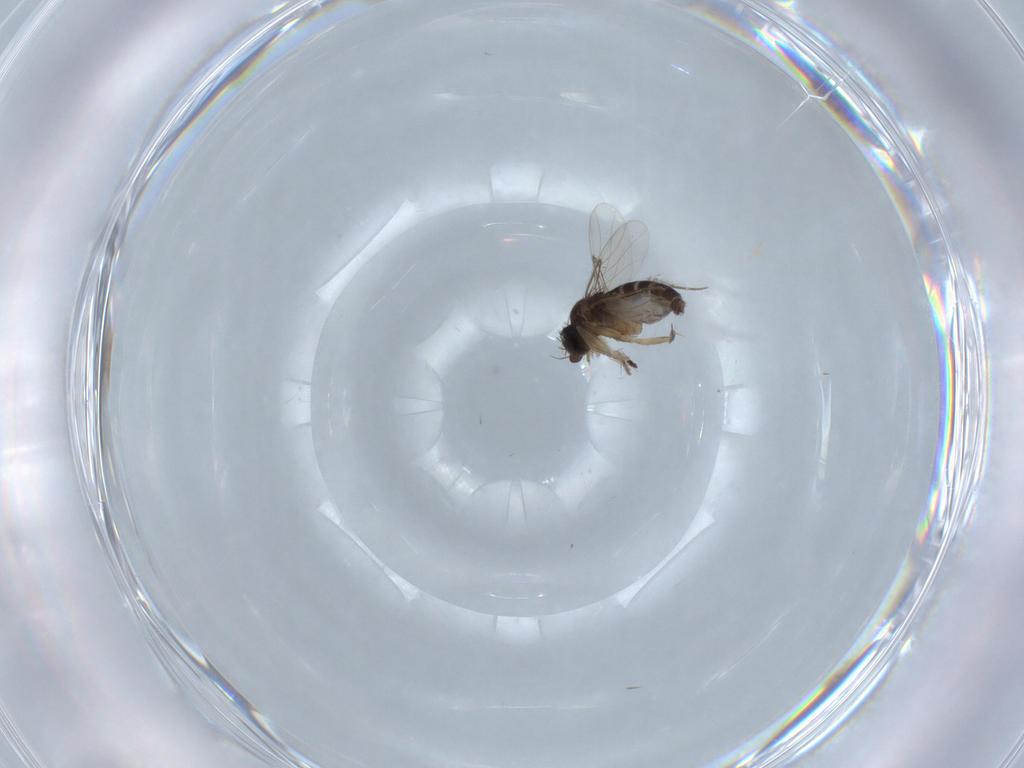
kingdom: Animalia
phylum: Arthropoda
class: Insecta
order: Diptera
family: Chironomidae
